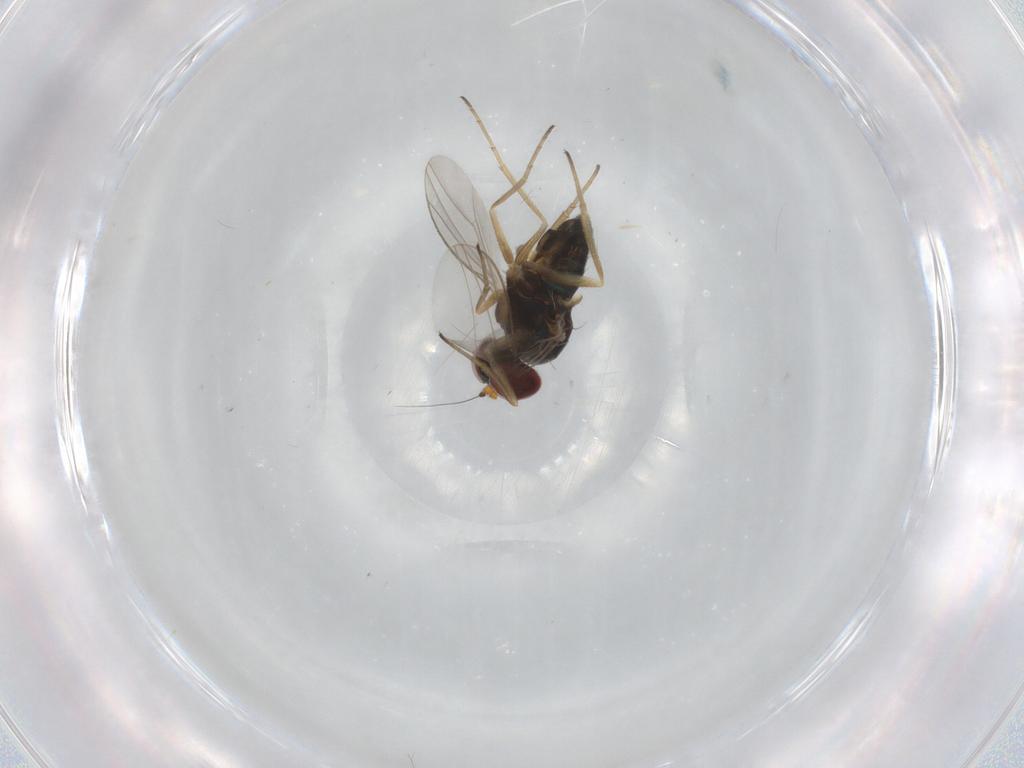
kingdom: Animalia
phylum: Arthropoda
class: Insecta
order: Diptera
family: Dolichopodidae
